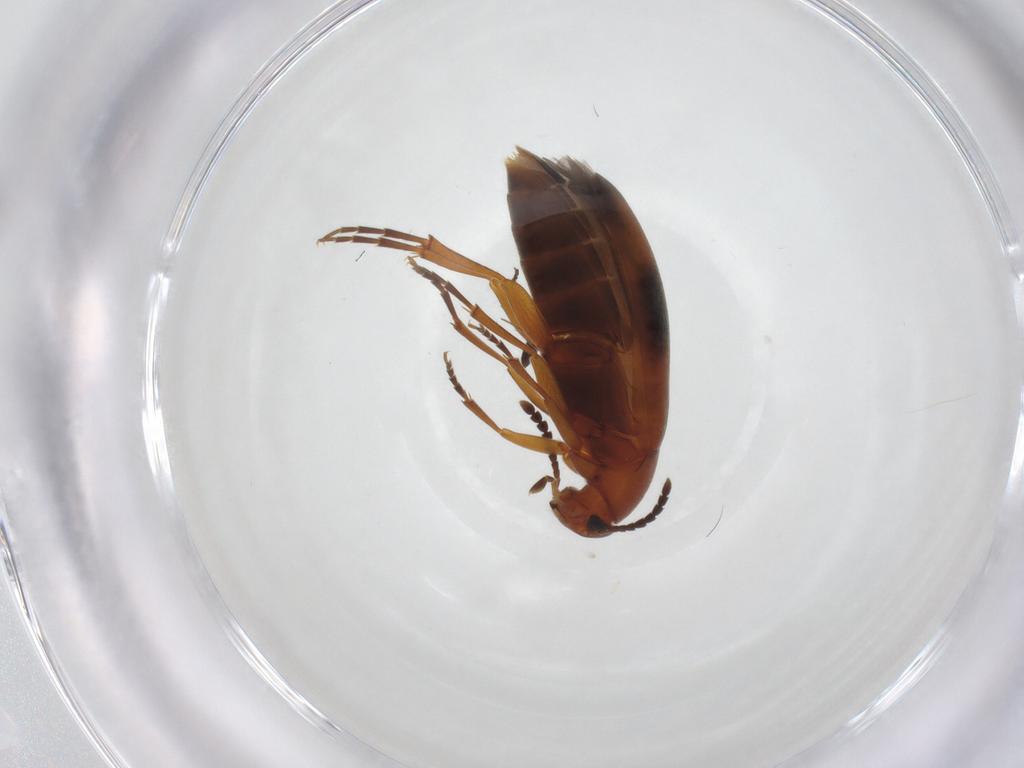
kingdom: Animalia
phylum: Arthropoda
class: Insecta
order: Coleoptera
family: Scraptiidae
